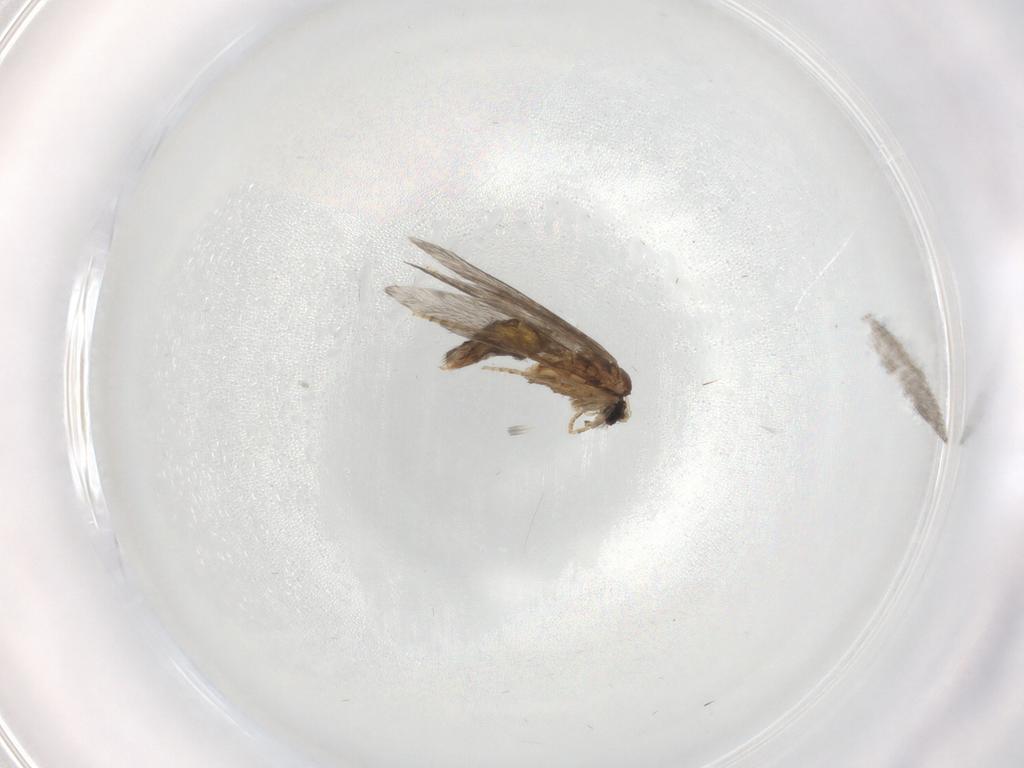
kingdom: Animalia
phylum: Arthropoda
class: Insecta
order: Trichoptera
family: Hydroptilidae
